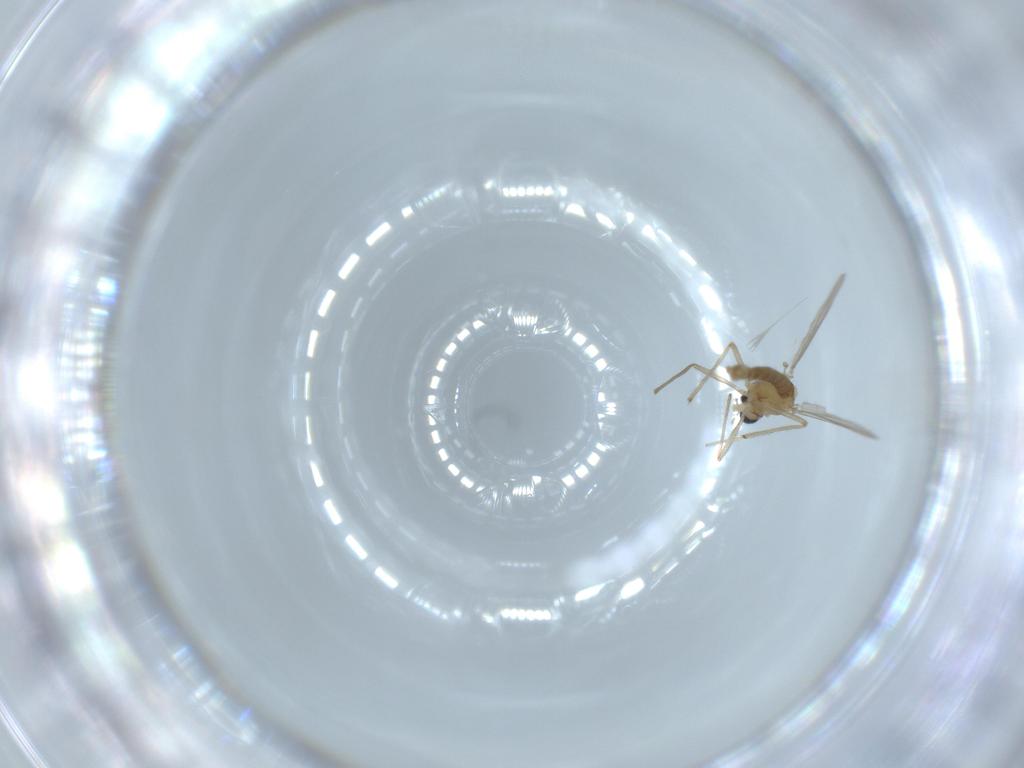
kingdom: Animalia
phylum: Arthropoda
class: Insecta
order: Diptera
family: Chironomidae
